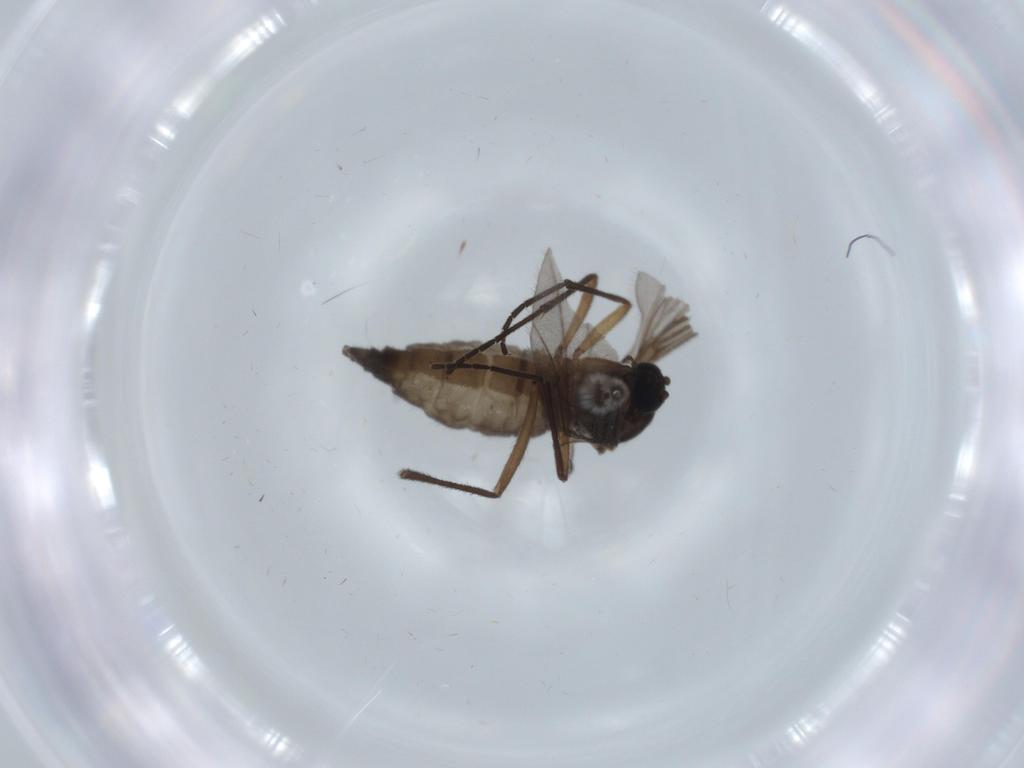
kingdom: Animalia
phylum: Arthropoda
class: Insecta
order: Diptera
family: Sciaridae
